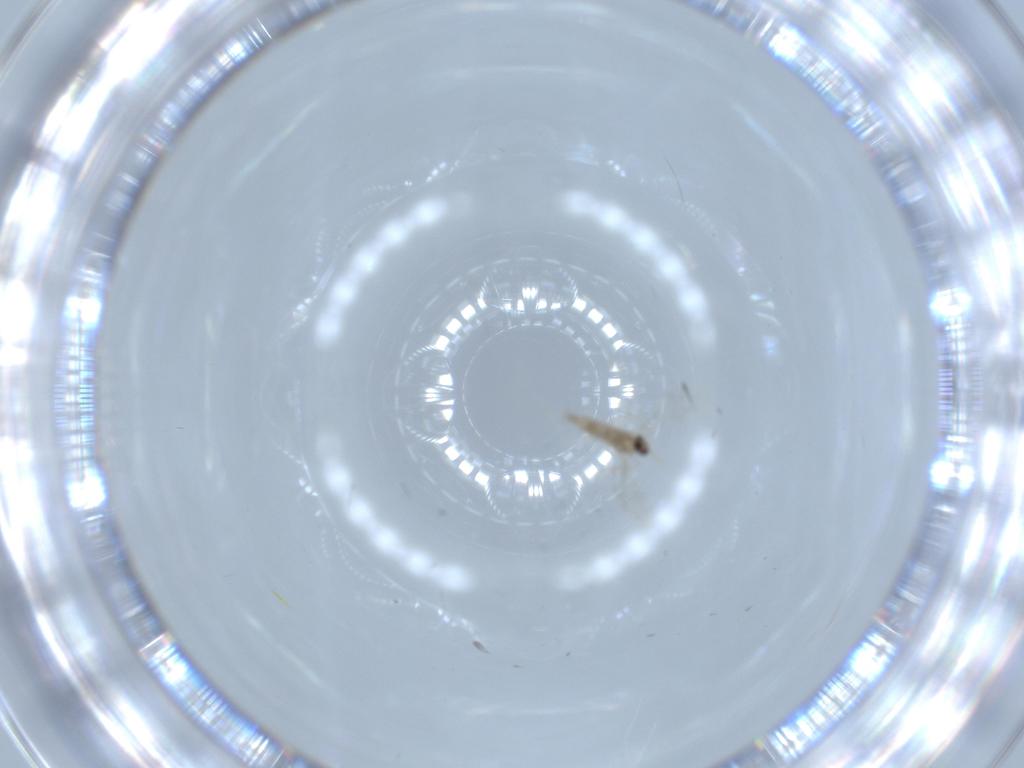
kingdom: Animalia
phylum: Arthropoda
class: Insecta
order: Diptera
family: Cecidomyiidae
